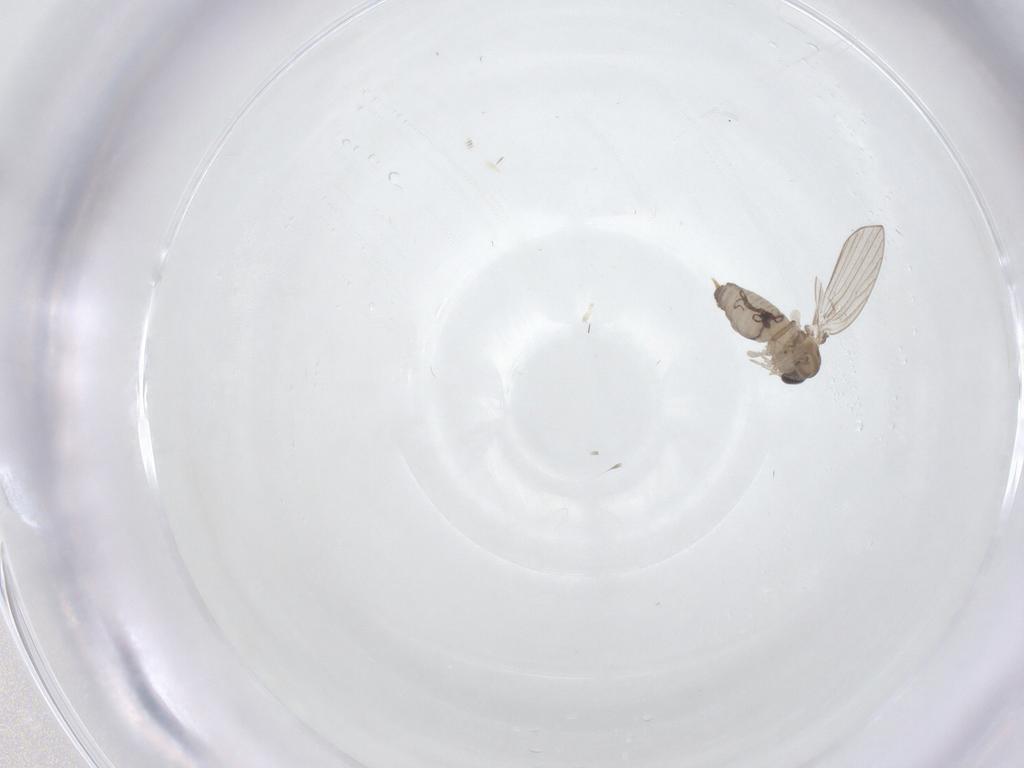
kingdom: Animalia
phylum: Arthropoda
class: Insecta
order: Diptera
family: Psychodidae
